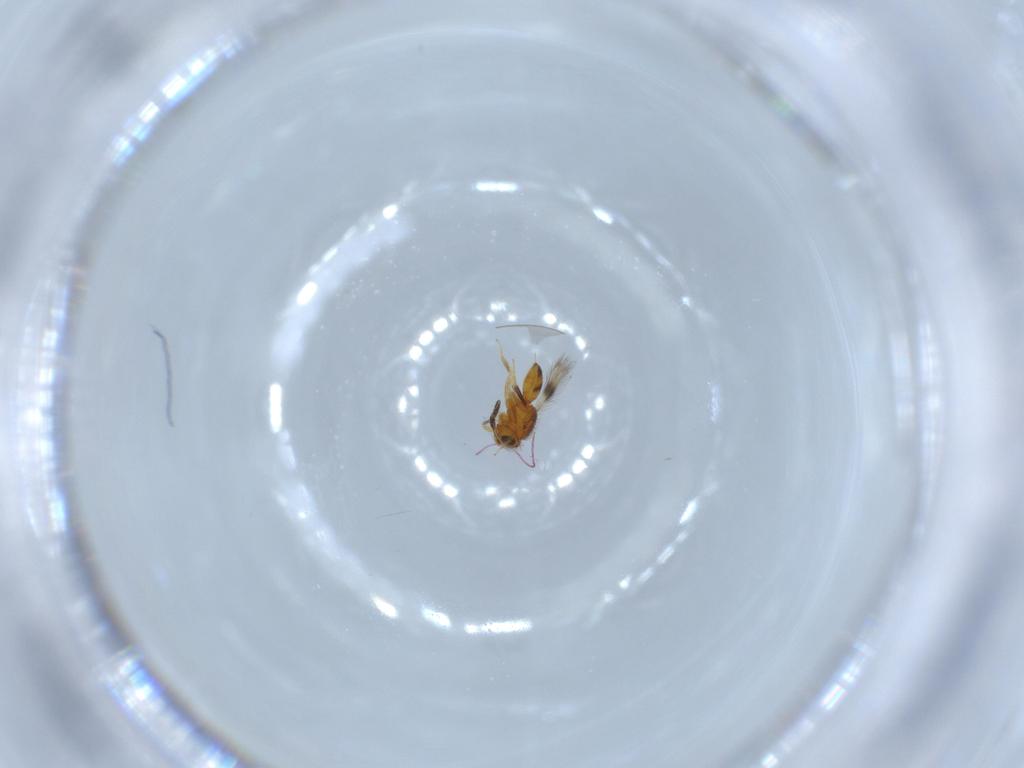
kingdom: Animalia
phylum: Arthropoda
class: Insecta
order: Hymenoptera
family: Scelionidae
